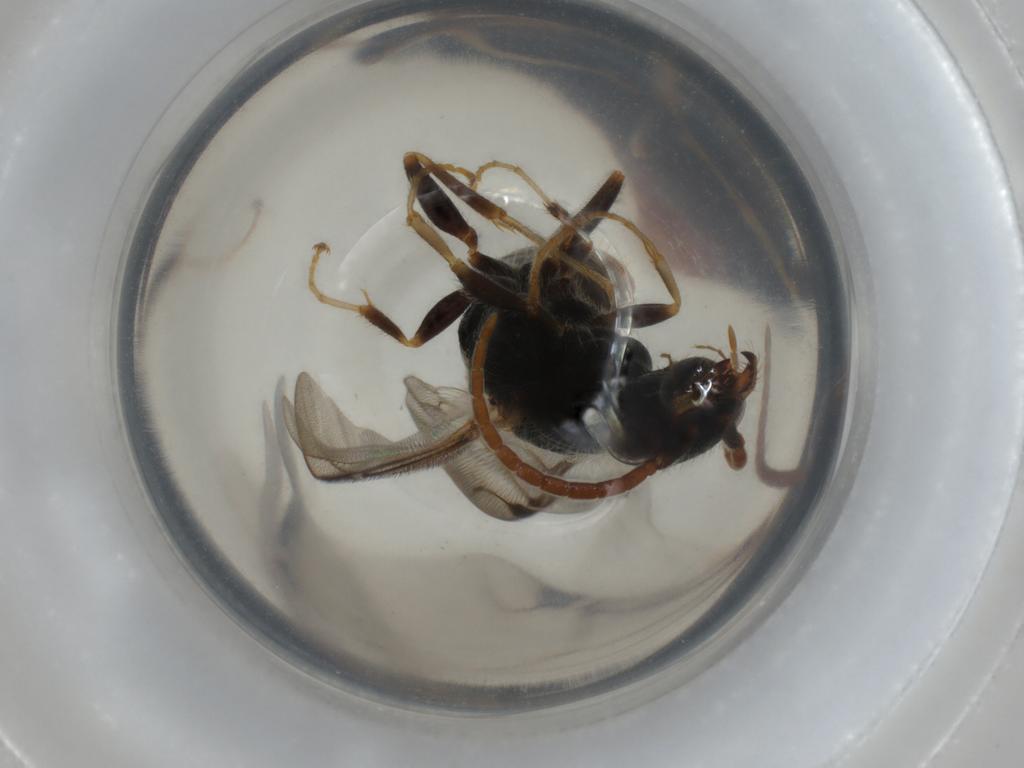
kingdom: Animalia
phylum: Arthropoda
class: Insecta
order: Hymenoptera
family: Bethylidae
